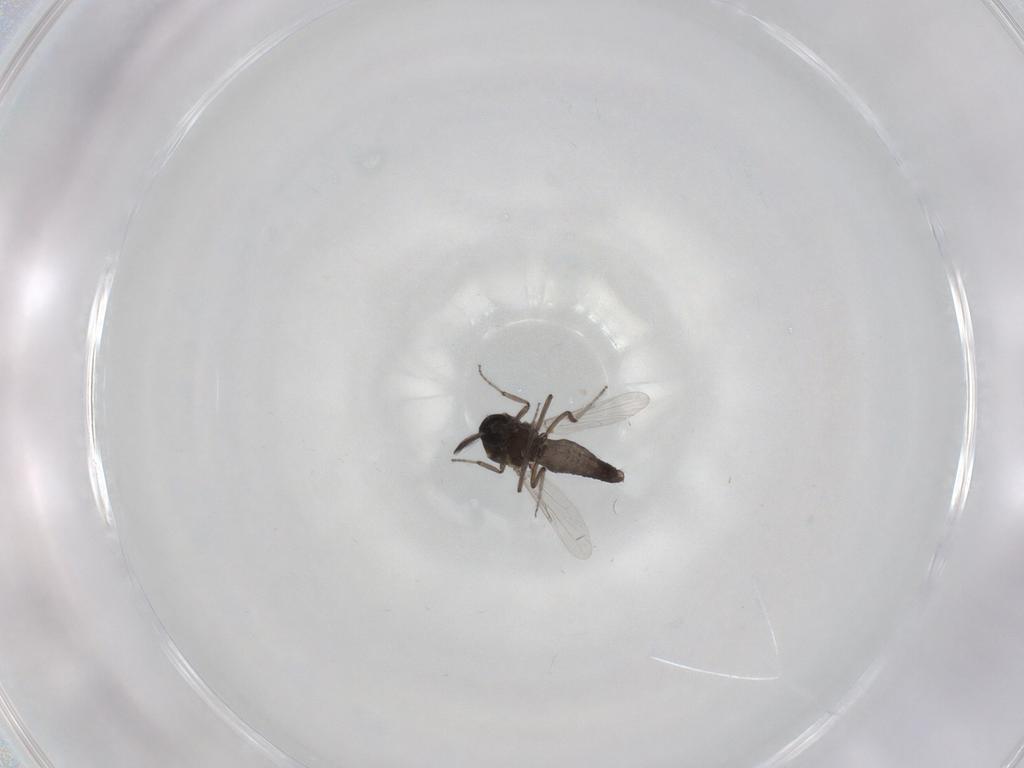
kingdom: Animalia
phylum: Arthropoda
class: Insecta
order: Diptera
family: Ceratopogonidae
